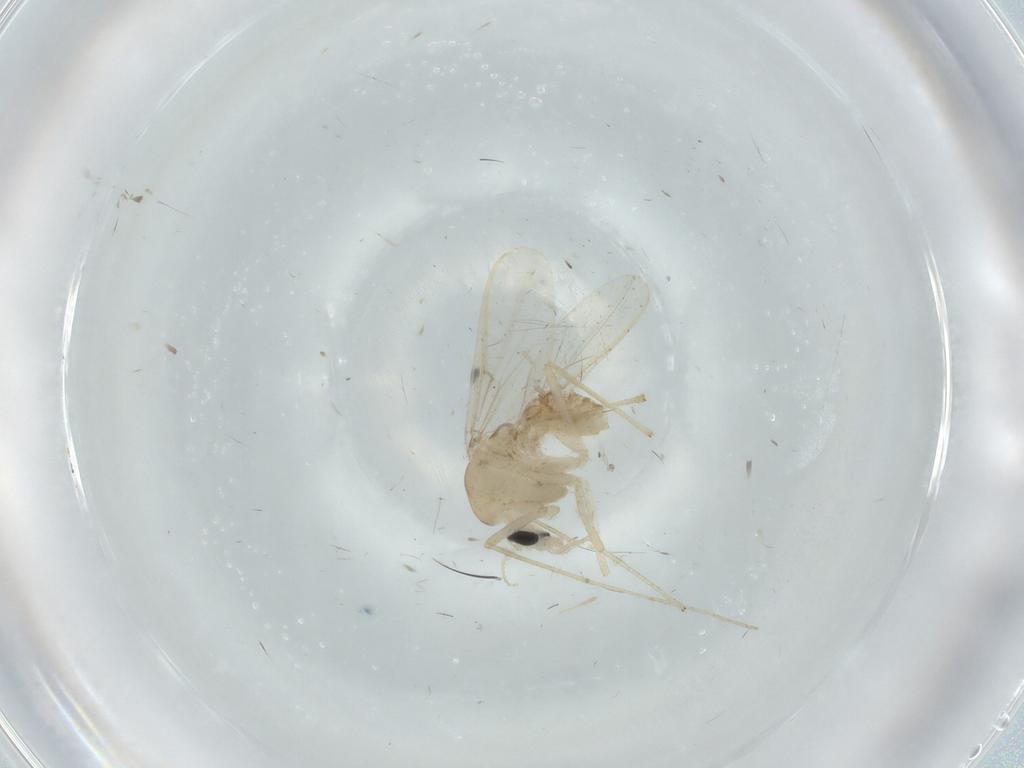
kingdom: Animalia
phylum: Arthropoda
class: Insecta
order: Diptera
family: Chironomidae
